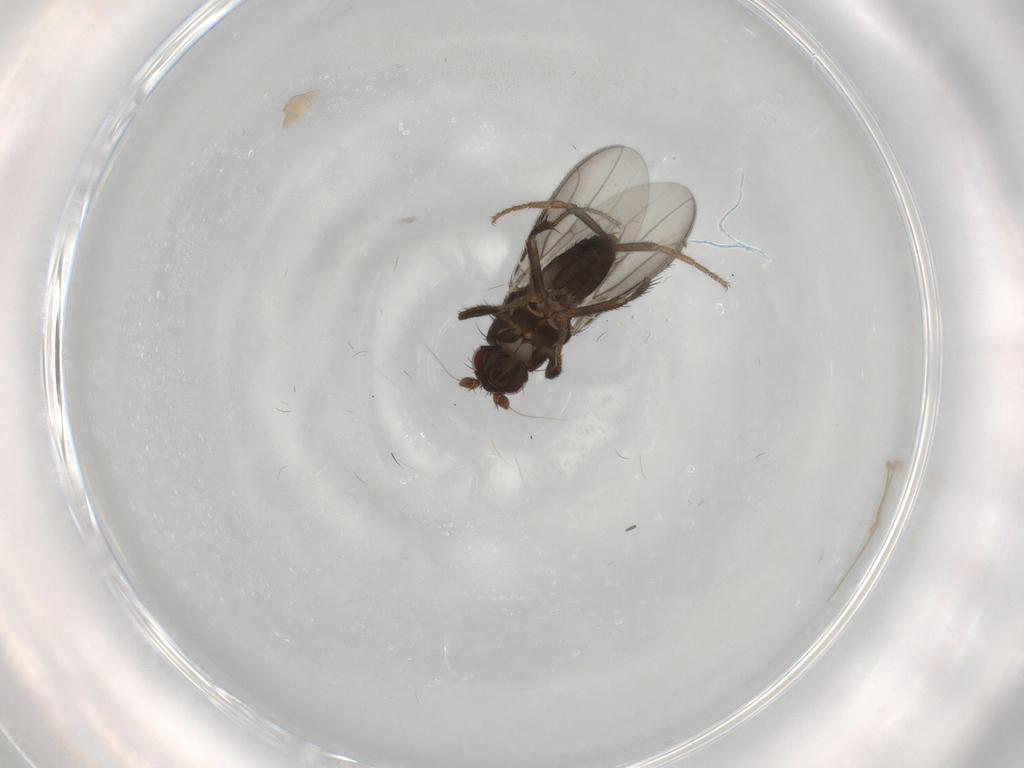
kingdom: Animalia
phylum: Arthropoda
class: Insecta
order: Diptera
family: Sphaeroceridae
